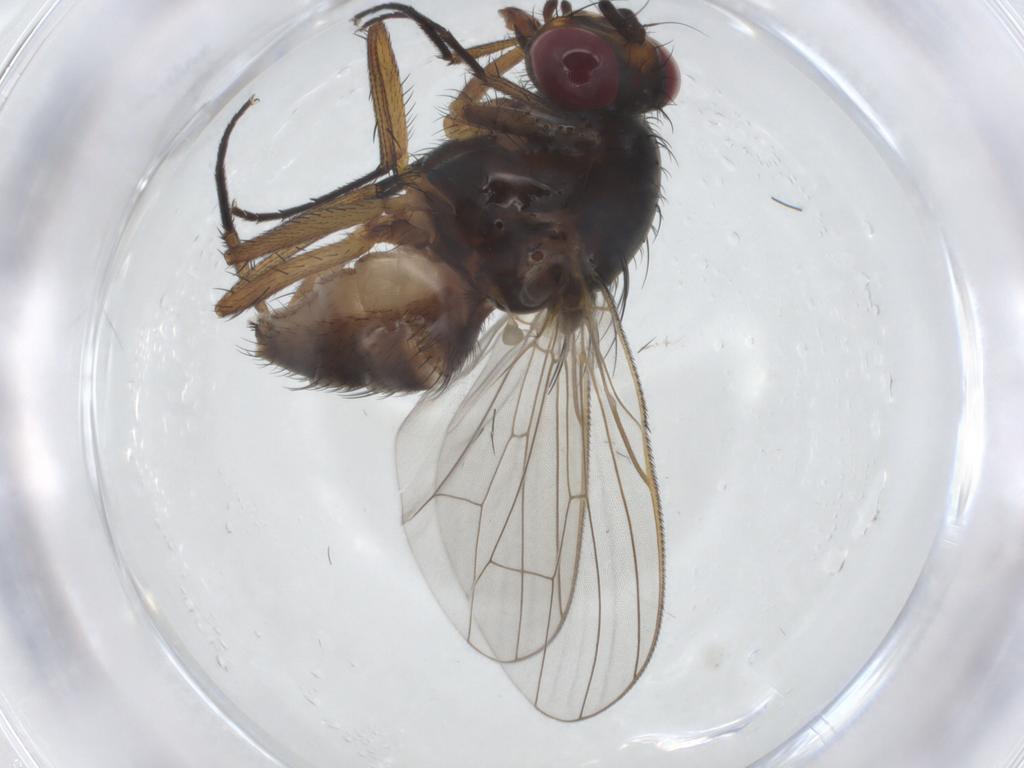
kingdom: Animalia
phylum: Arthropoda
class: Insecta
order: Diptera
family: Anthomyiidae
